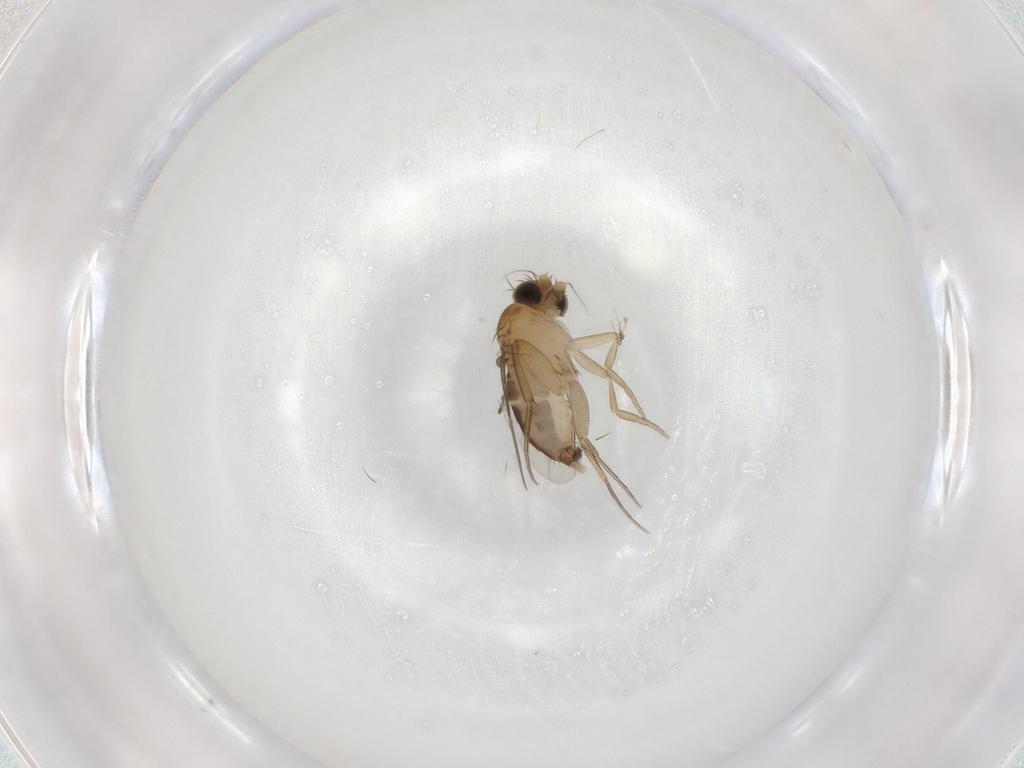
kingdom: Animalia
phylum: Arthropoda
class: Insecta
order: Diptera
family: Phoridae
